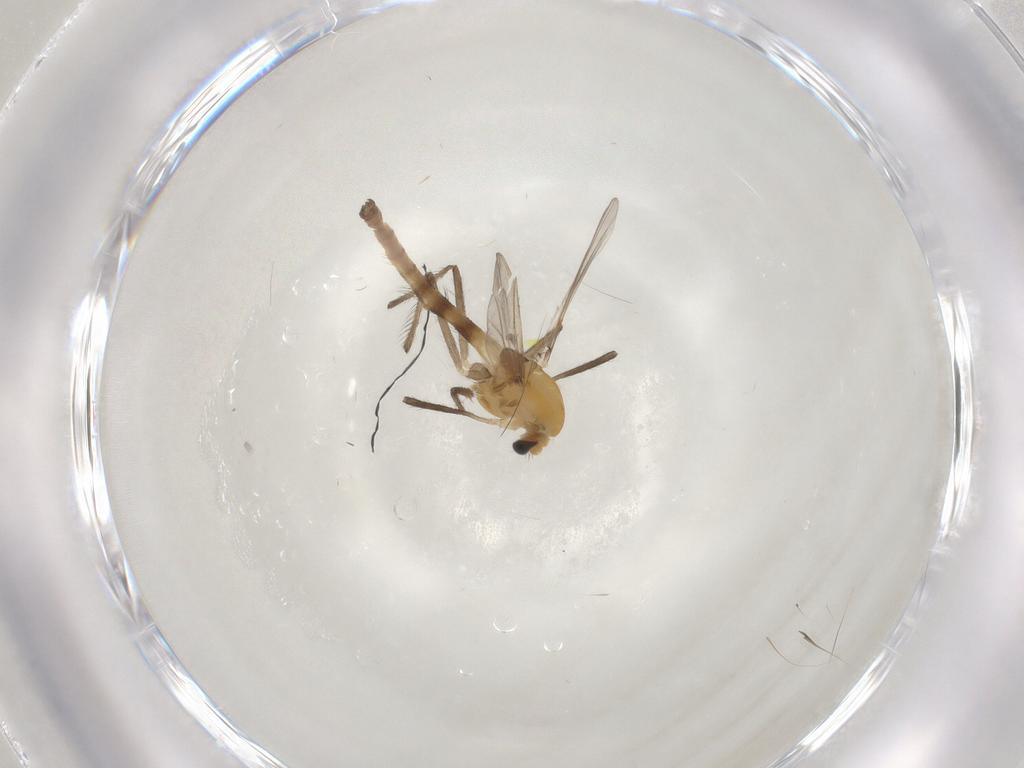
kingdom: Animalia
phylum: Arthropoda
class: Insecta
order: Diptera
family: Chironomidae
